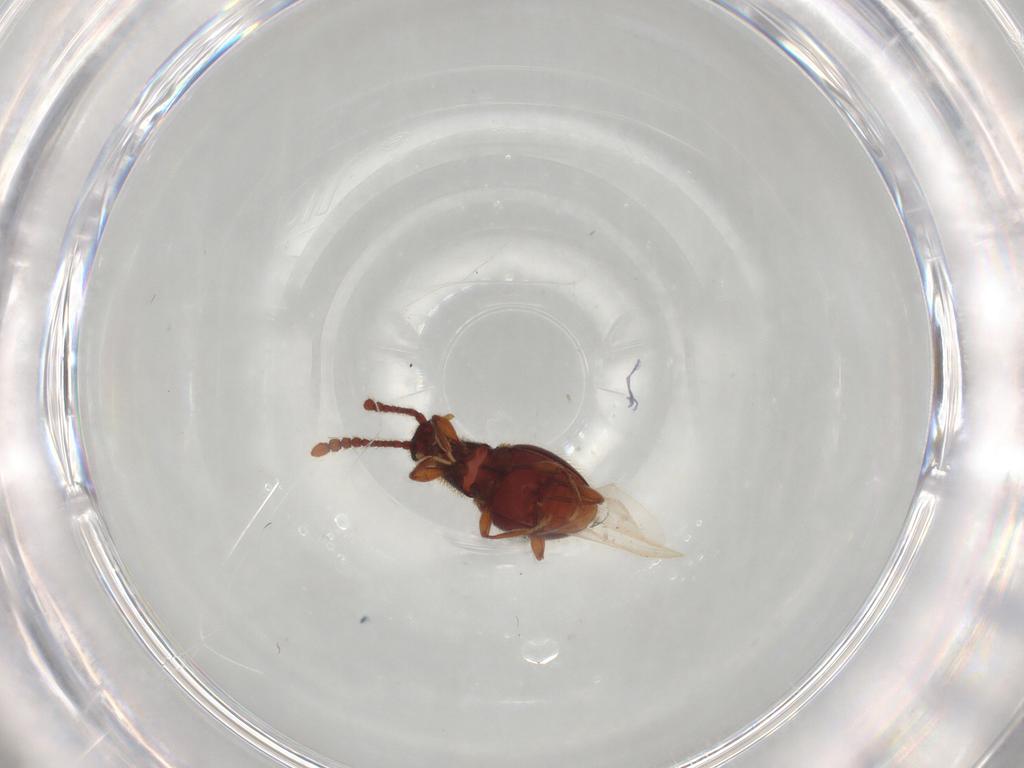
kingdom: Animalia
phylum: Arthropoda
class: Insecta
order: Coleoptera
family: Staphylinidae
